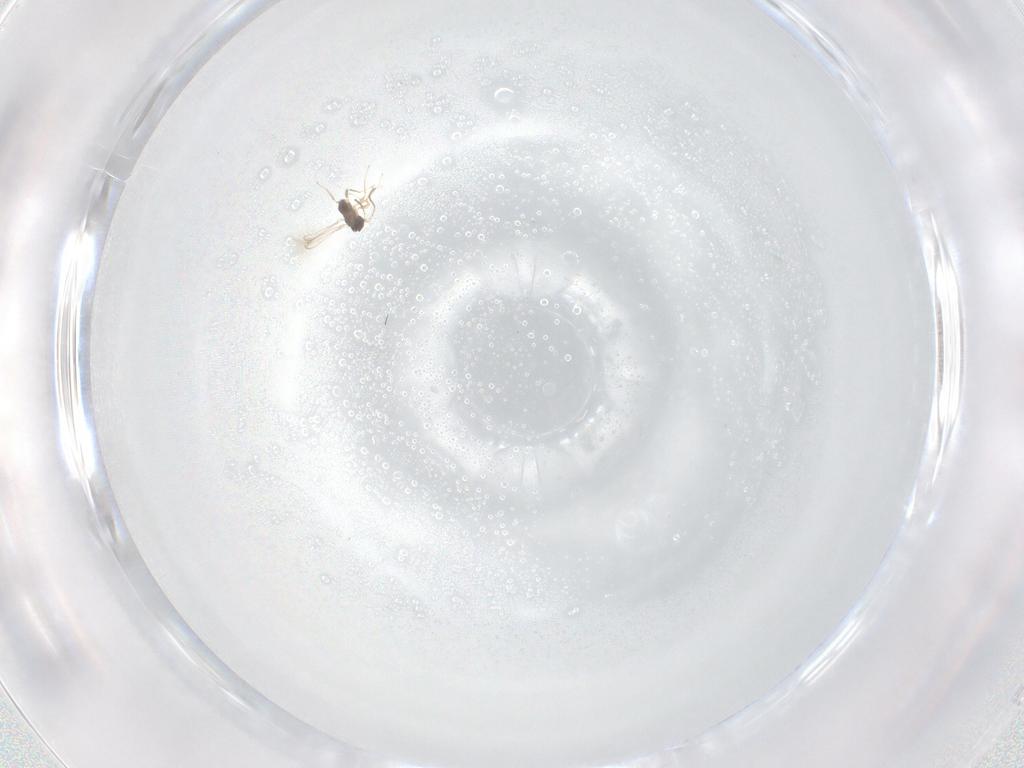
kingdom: Animalia
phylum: Arthropoda
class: Insecta
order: Hymenoptera
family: Mymaridae
